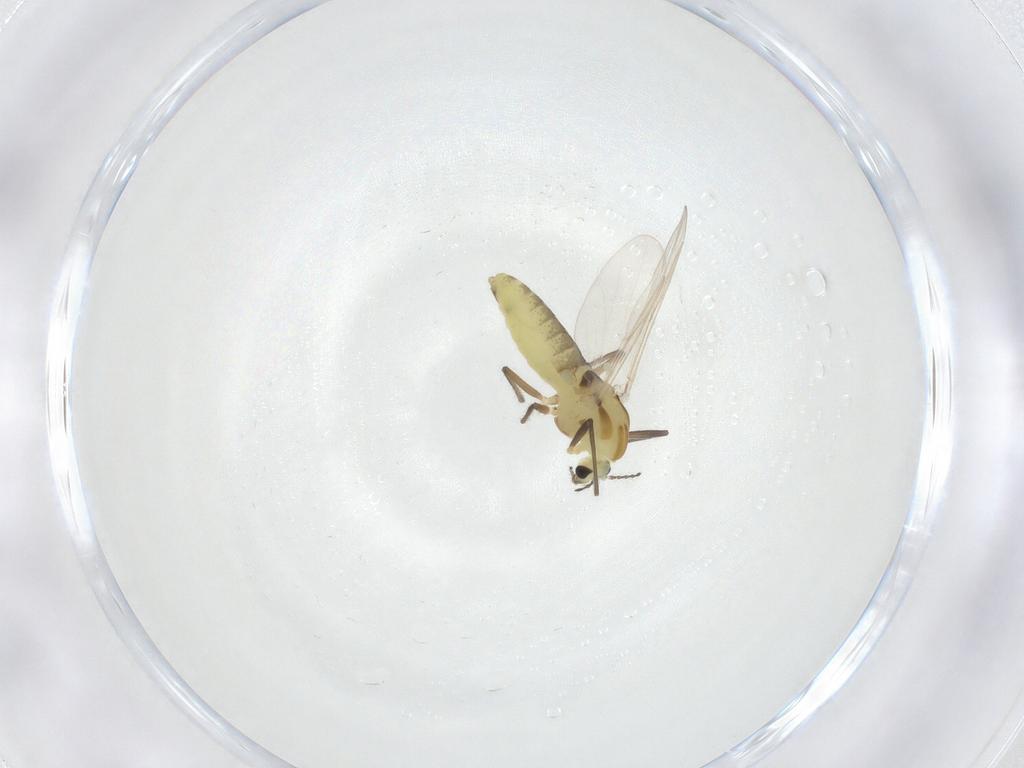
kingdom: Animalia
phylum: Arthropoda
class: Insecta
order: Diptera
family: Chironomidae
